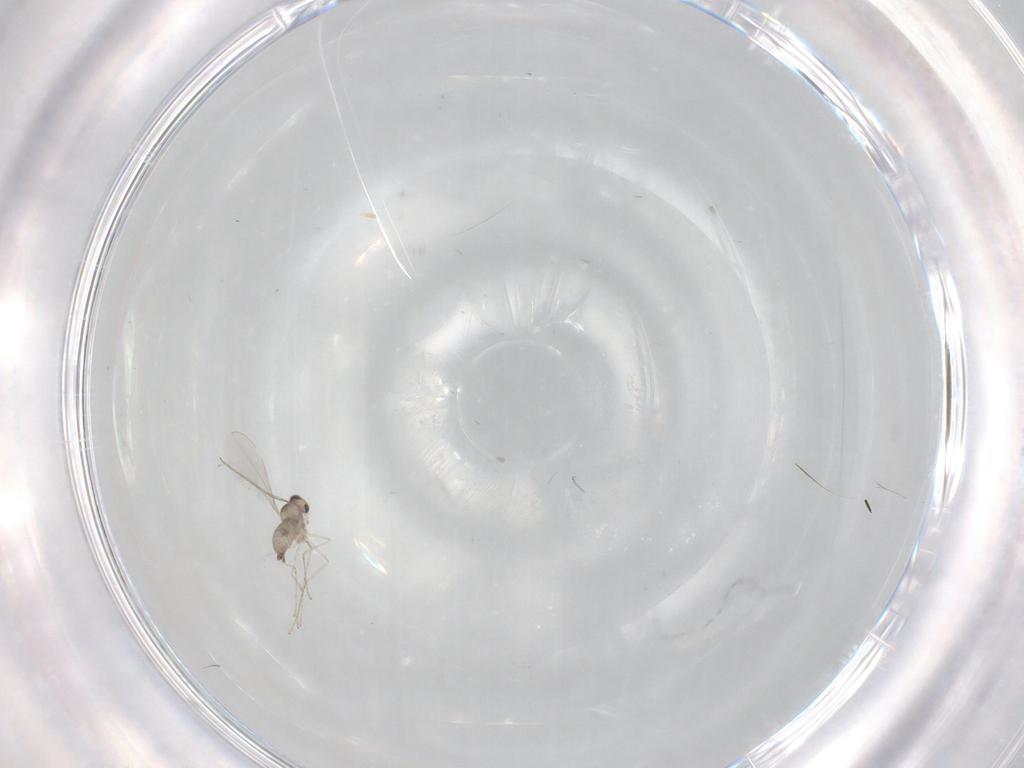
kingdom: Animalia
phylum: Arthropoda
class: Insecta
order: Diptera
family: Cecidomyiidae
